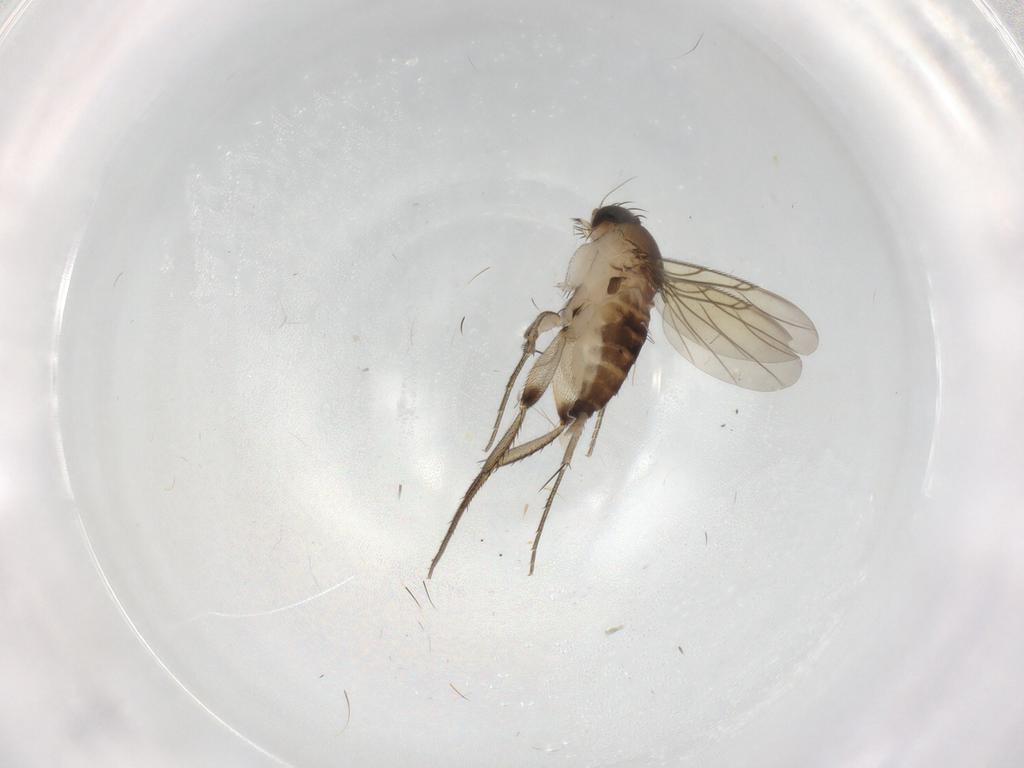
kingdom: Animalia
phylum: Arthropoda
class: Insecta
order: Diptera
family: Phoridae
